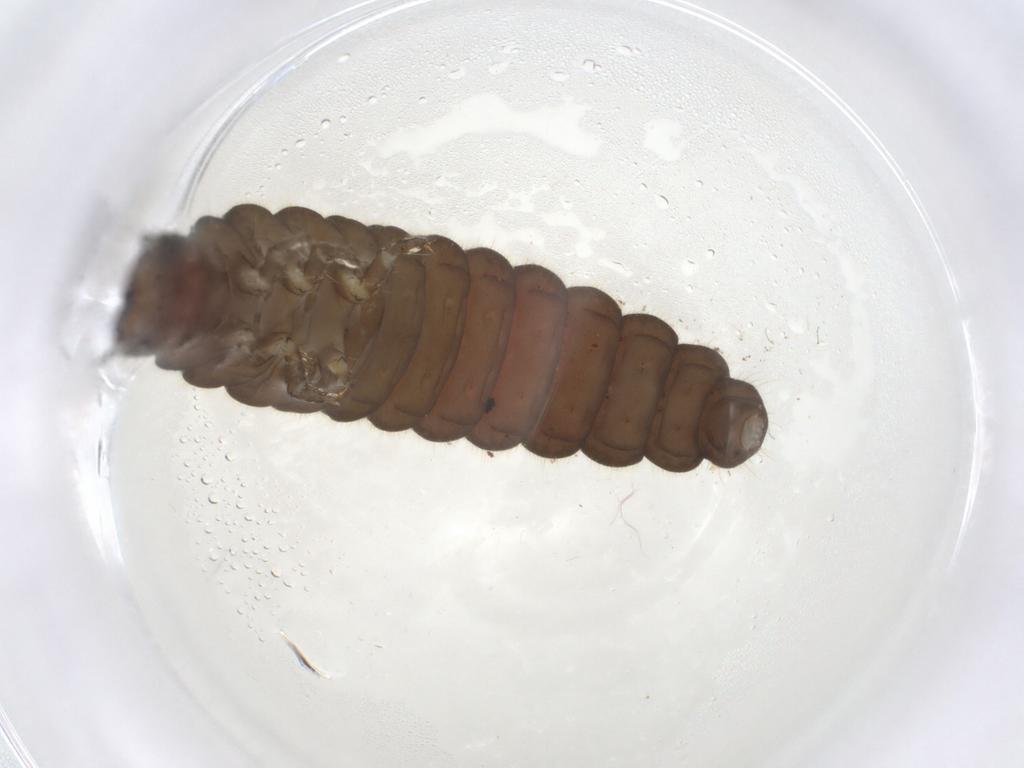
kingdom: Animalia
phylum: Arthropoda
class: Insecta
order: Coleoptera
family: Cantharidae
